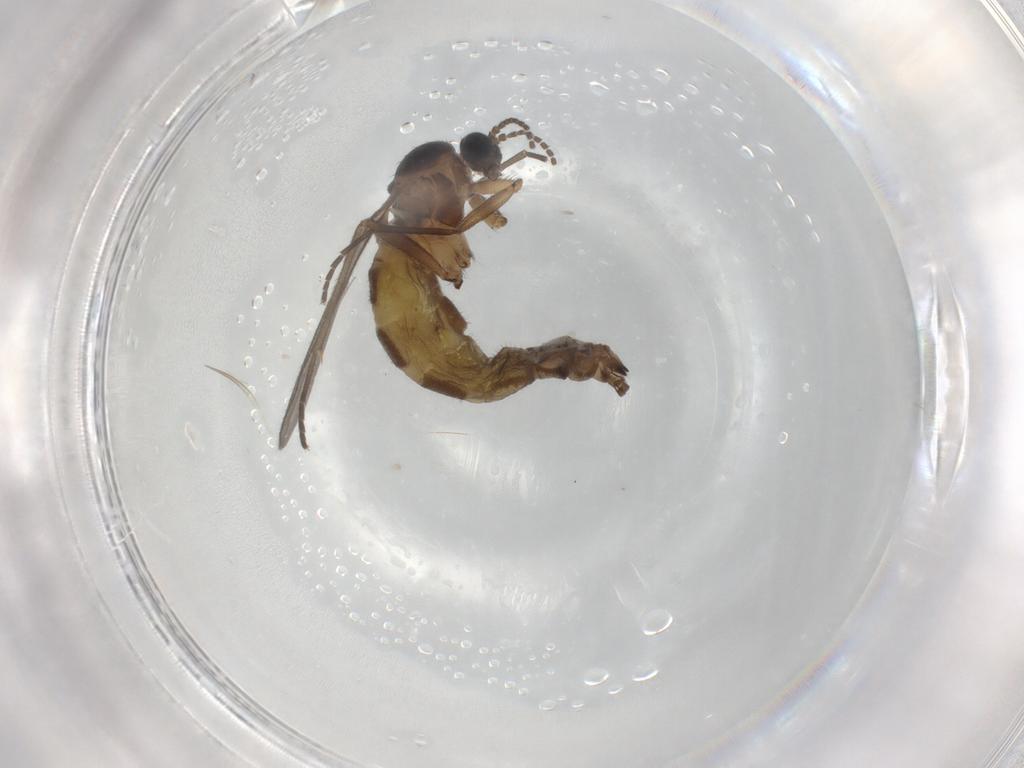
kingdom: Animalia
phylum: Arthropoda
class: Insecta
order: Diptera
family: Sciaridae
